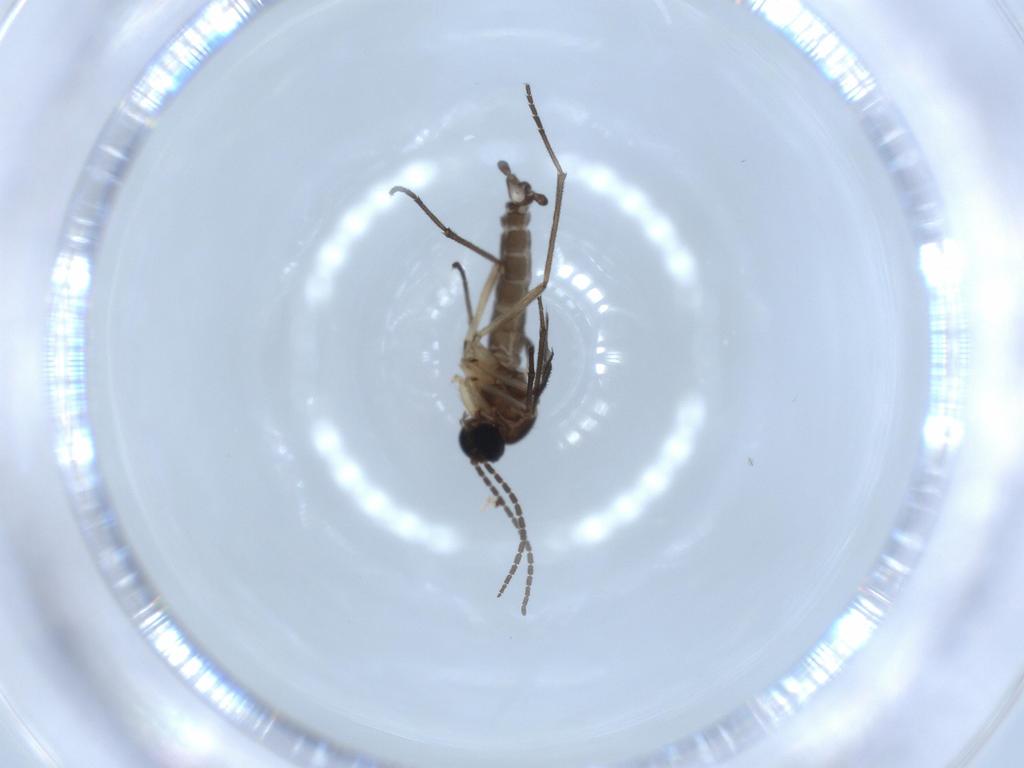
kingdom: Animalia
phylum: Arthropoda
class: Insecta
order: Diptera
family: Sciaridae
